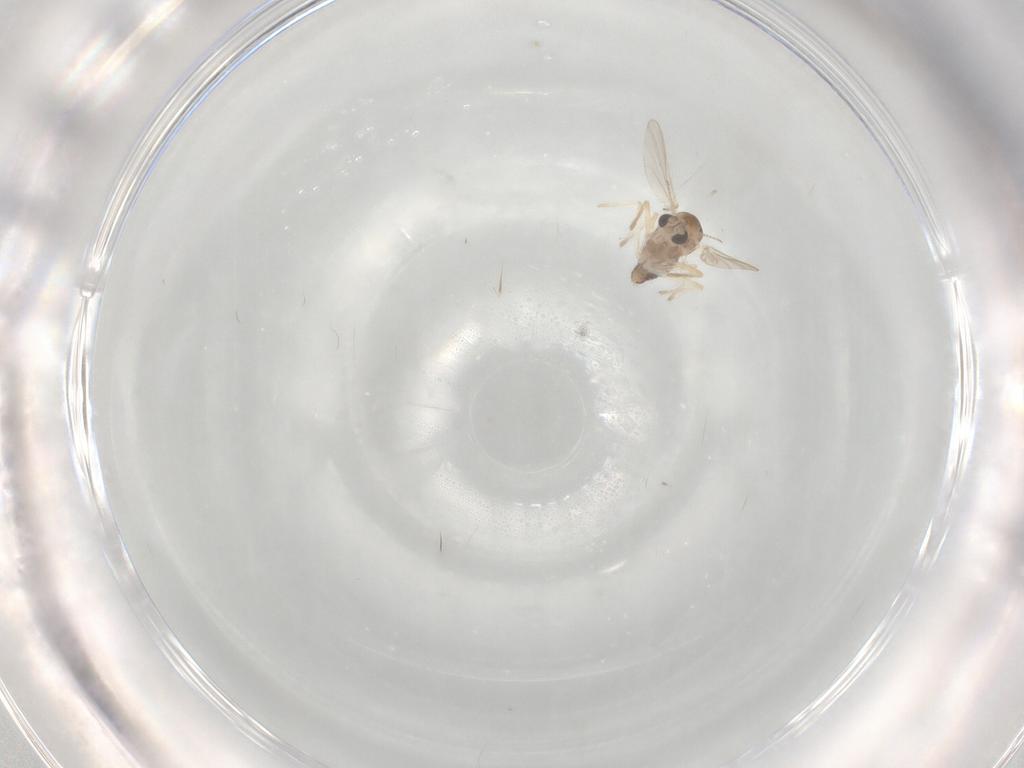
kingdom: Animalia
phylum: Arthropoda
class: Insecta
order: Diptera
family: Chironomidae
